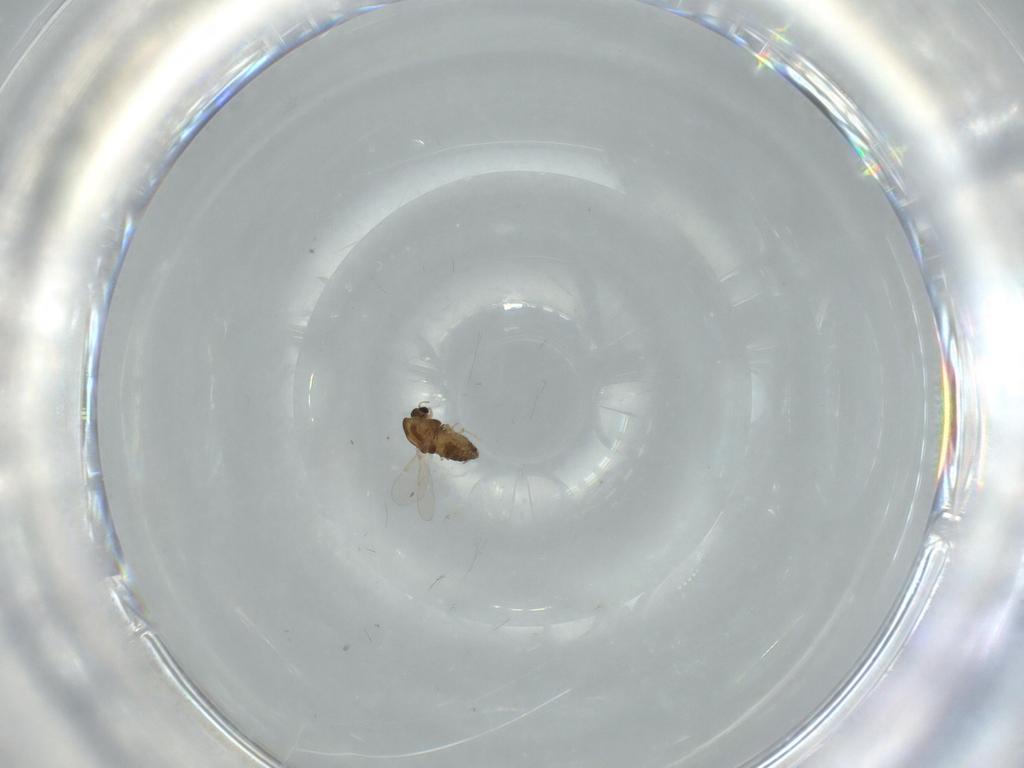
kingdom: Animalia
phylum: Arthropoda
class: Insecta
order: Diptera
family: Chironomidae
